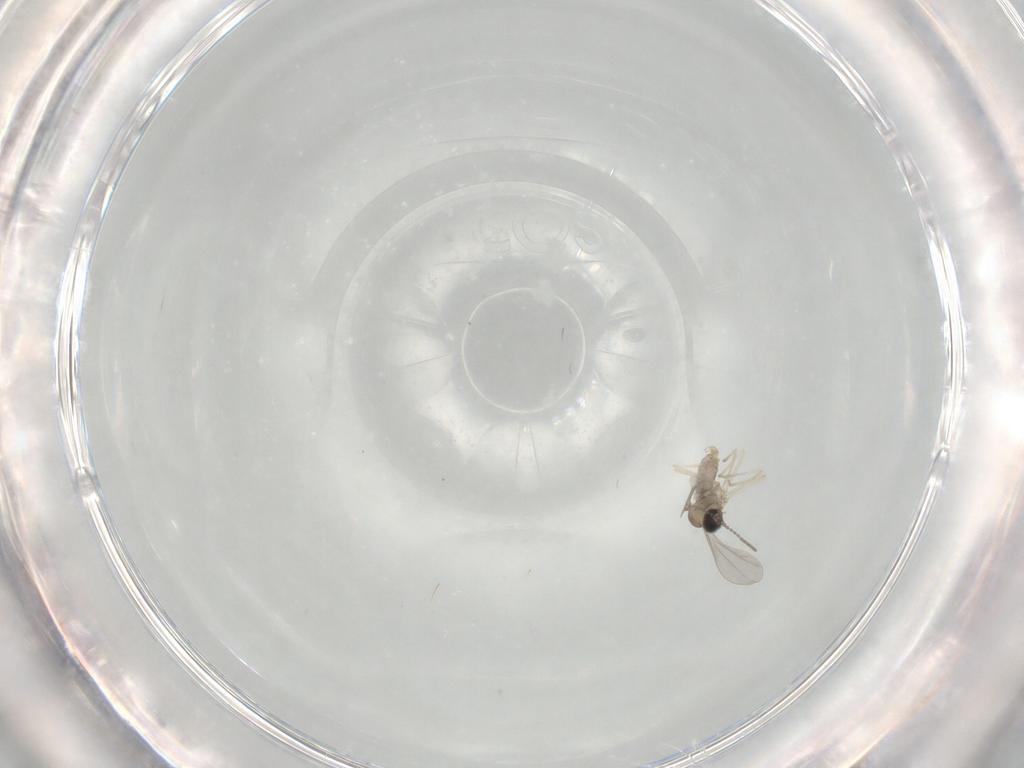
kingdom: Animalia
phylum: Arthropoda
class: Insecta
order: Diptera
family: Cecidomyiidae
